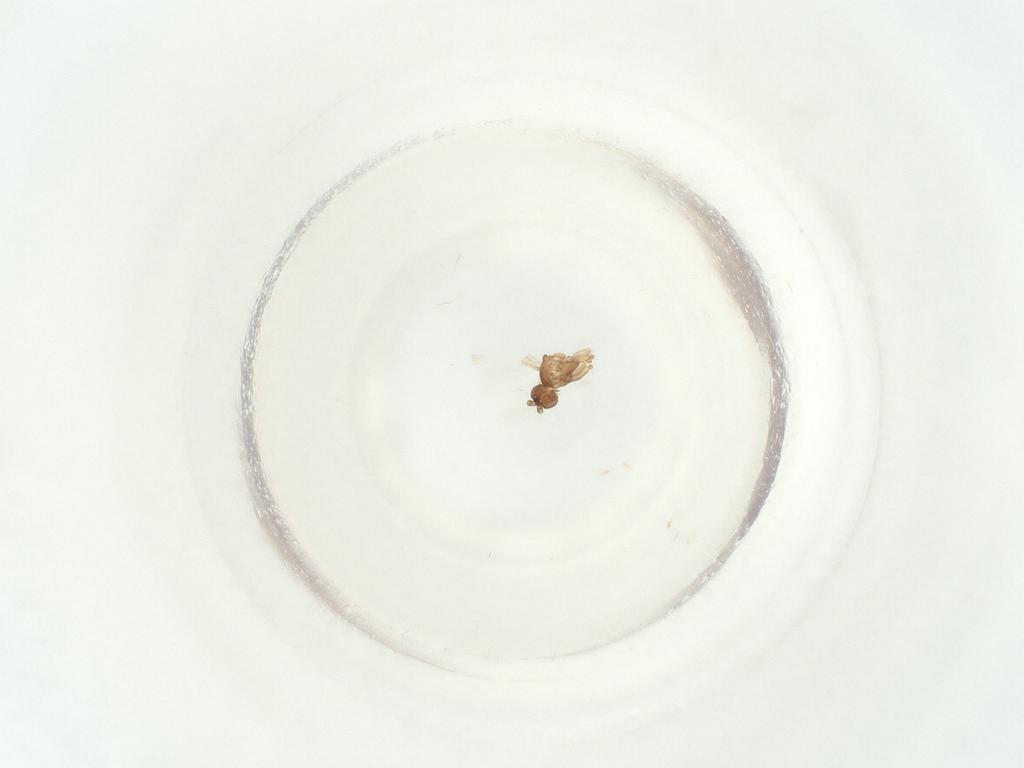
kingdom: Animalia
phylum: Arthropoda
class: Insecta
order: Diptera
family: Sciaridae
